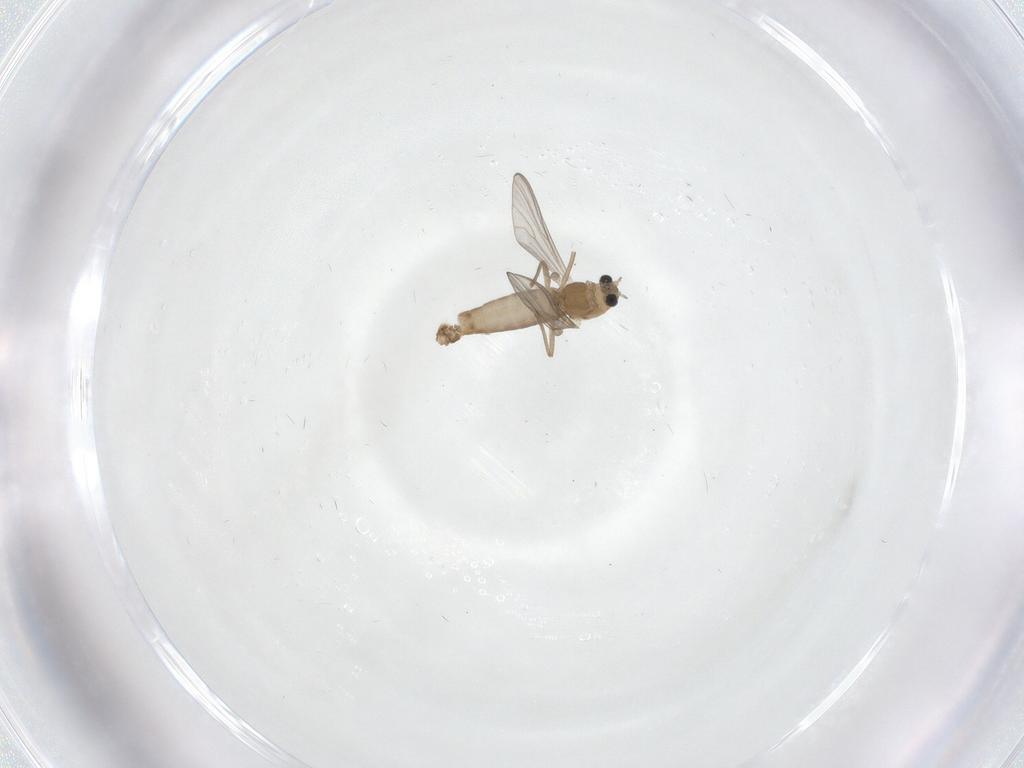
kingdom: Animalia
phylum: Arthropoda
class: Insecta
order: Diptera
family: Chironomidae
